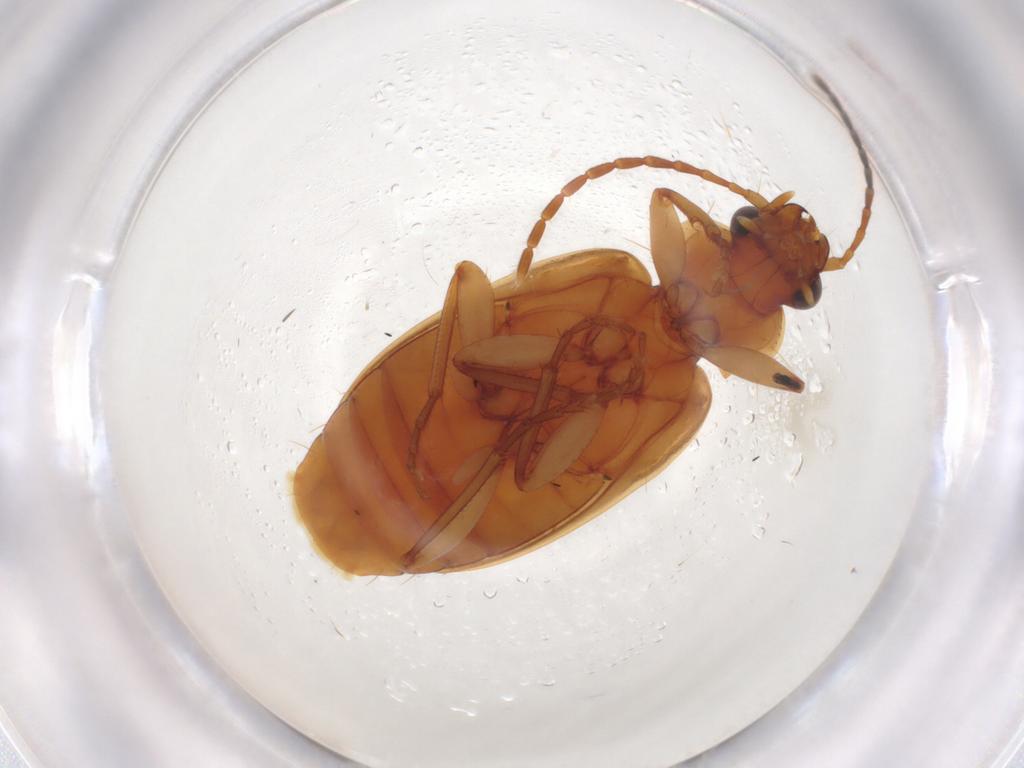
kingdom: Animalia
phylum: Arthropoda
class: Insecta
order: Coleoptera
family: Carabidae
